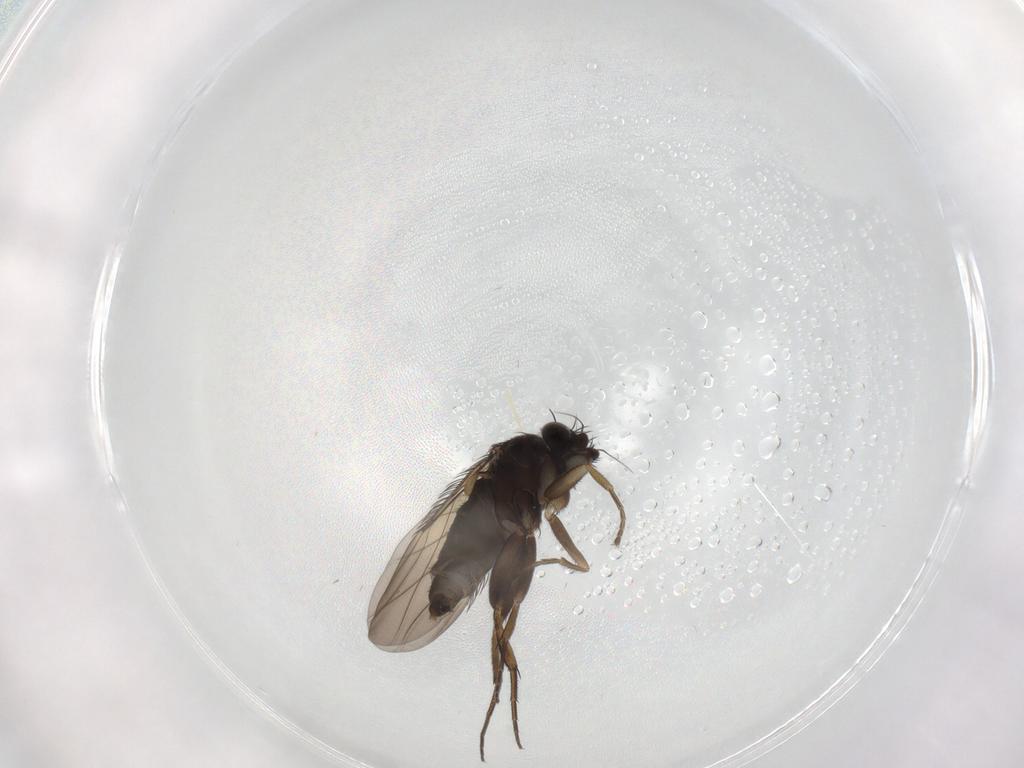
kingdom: Animalia
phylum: Arthropoda
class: Insecta
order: Diptera
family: Phoridae
